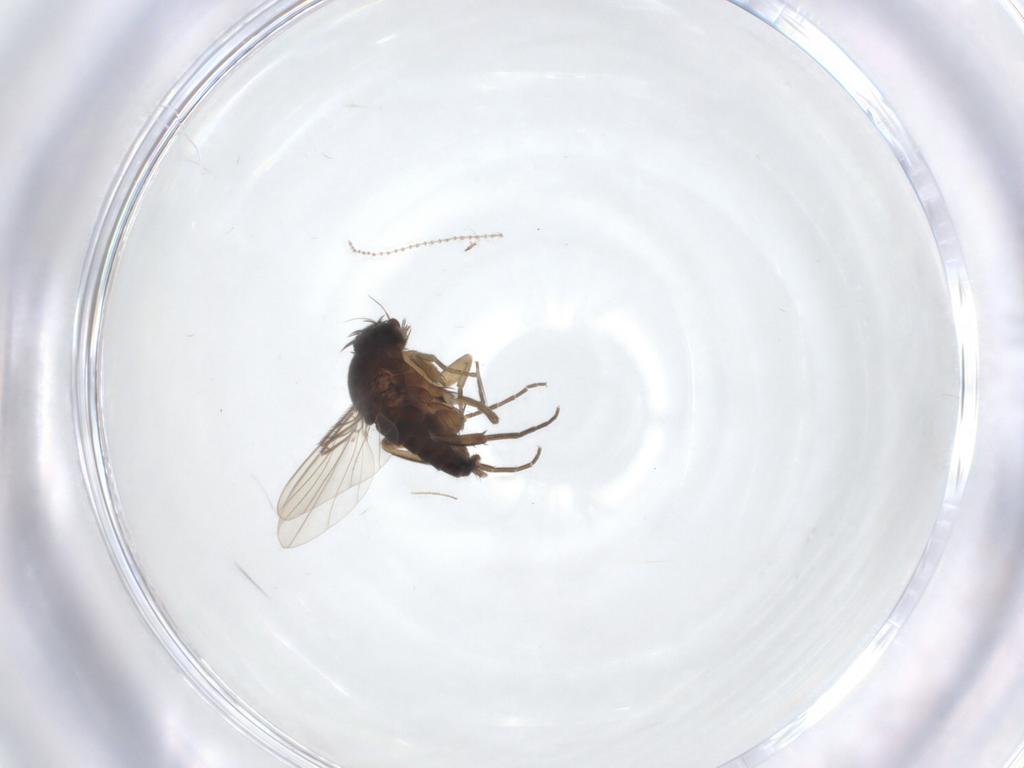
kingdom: Animalia
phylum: Arthropoda
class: Insecta
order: Diptera
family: Cecidomyiidae
